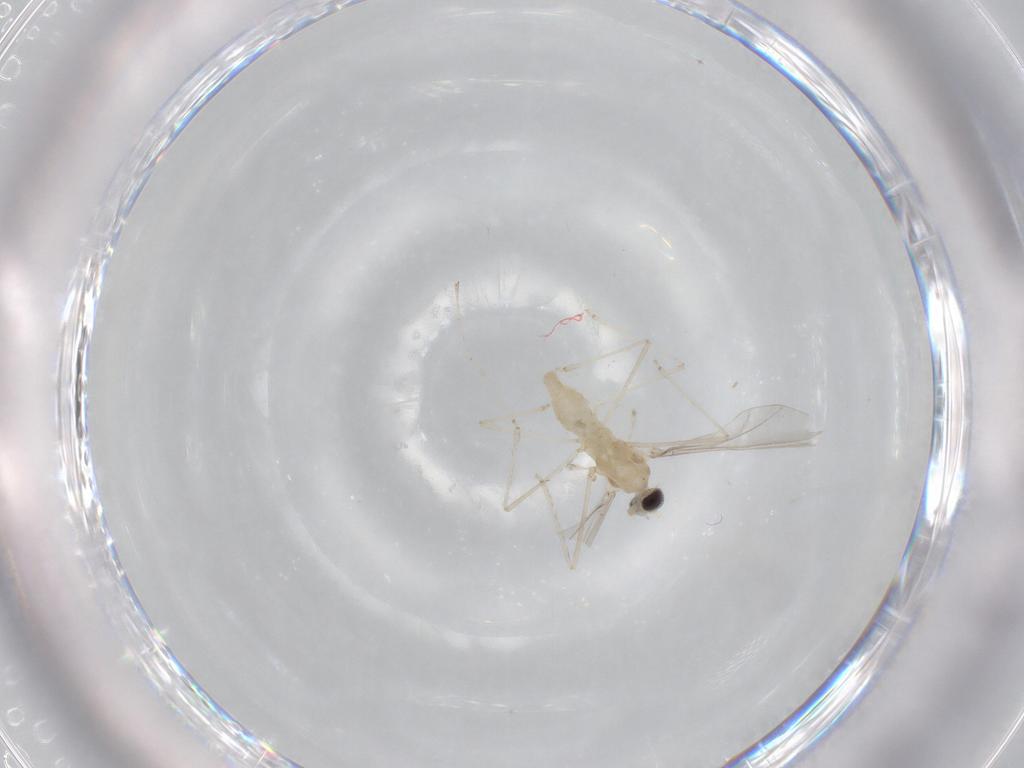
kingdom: Animalia
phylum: Arthropoda
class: Insecta
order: Diptera
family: Cecidomyiidae
